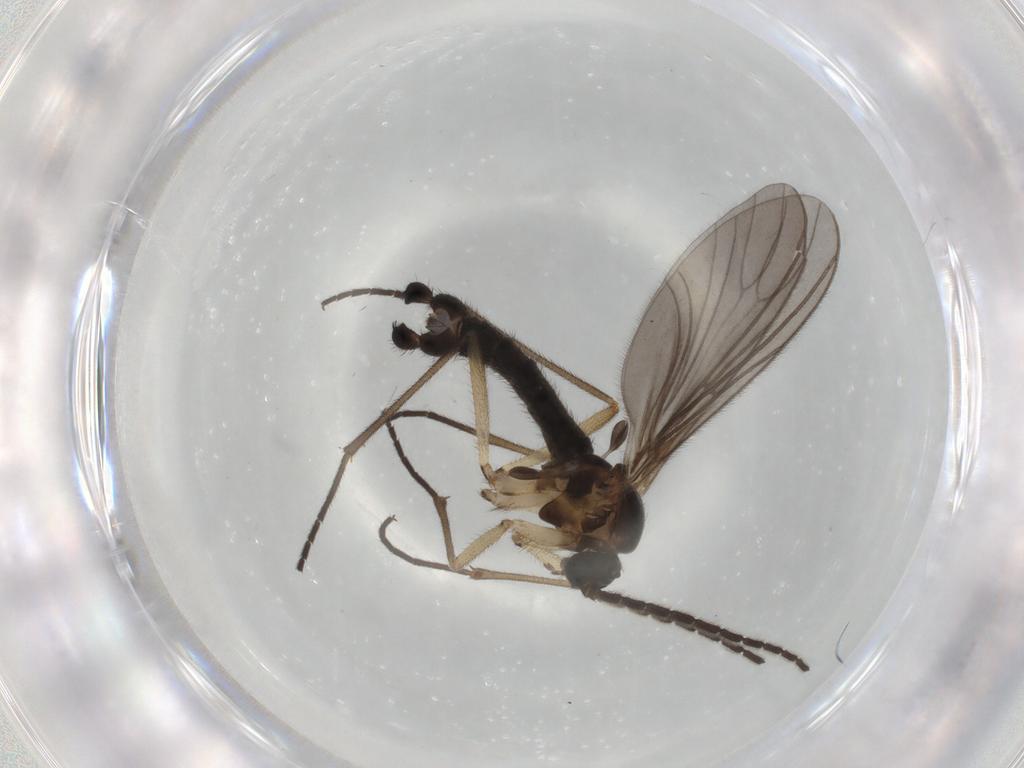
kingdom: Animalia
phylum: Arthropoda
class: Insecta
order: Diptera
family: Sciaridae
